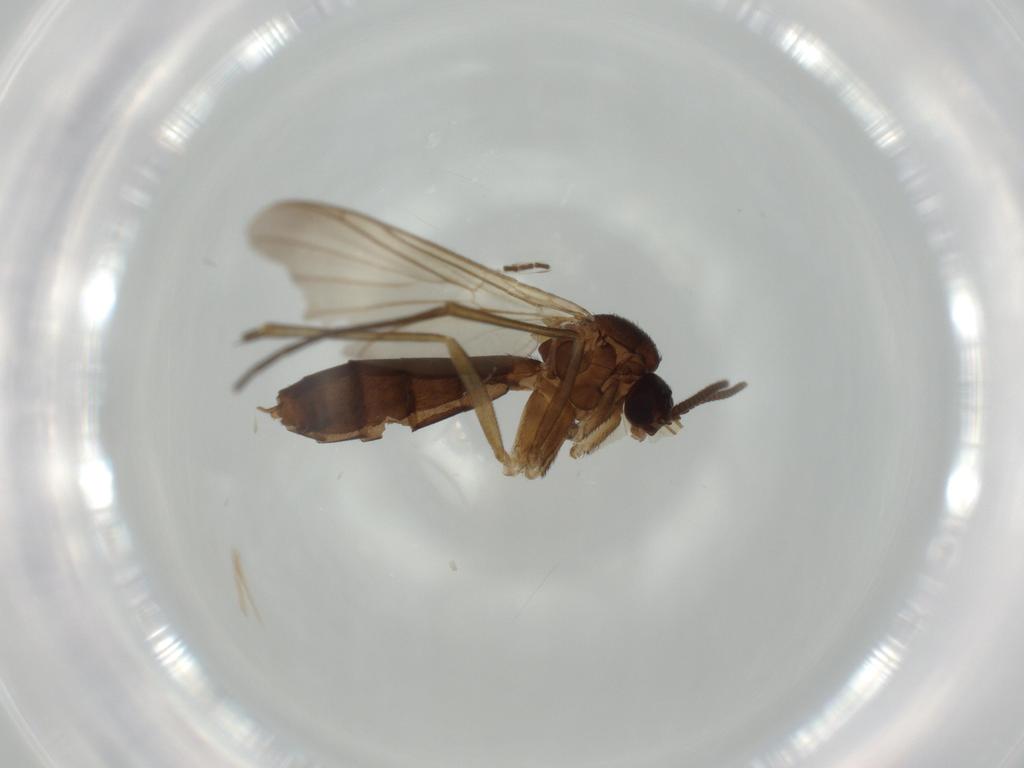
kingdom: Animalia
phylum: Arthropoda
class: Insecta
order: Diptera
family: Keroplatidae
